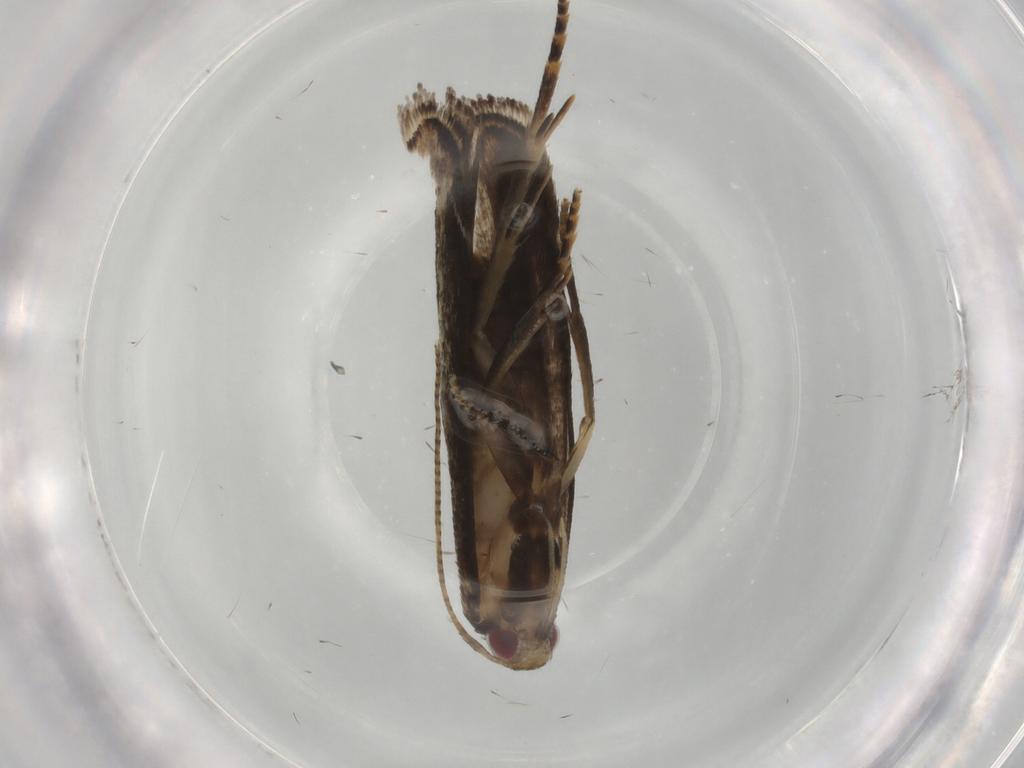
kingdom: Animalia
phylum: Arthropoda
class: Insecta
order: Lepidoptera
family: Gelechiidae
